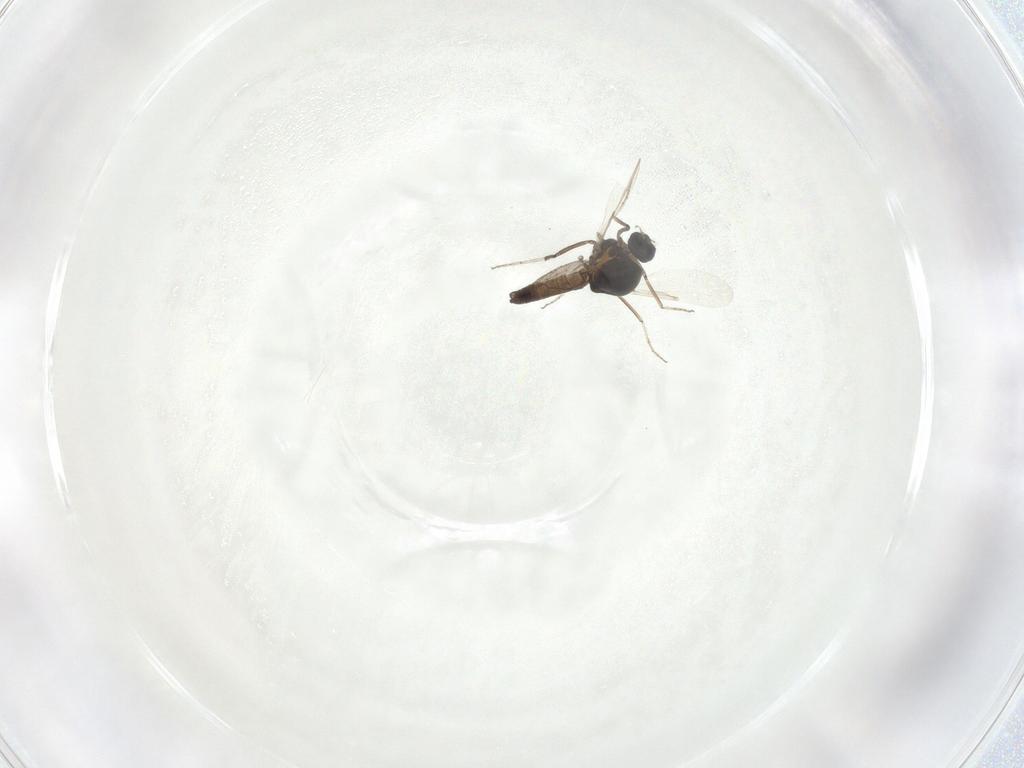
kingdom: Animalia
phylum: Arthropoda
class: Insecta
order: Diptera
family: Ceratopogonidae
